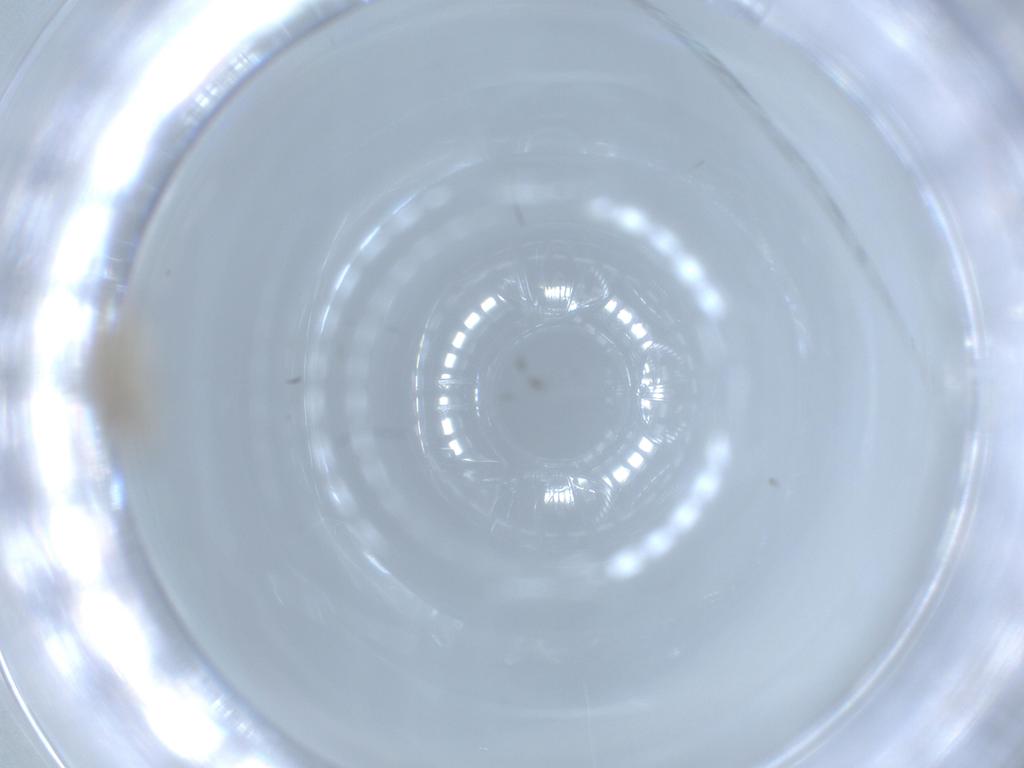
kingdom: Animalia
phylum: Arthropoda
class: Insecta
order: Diptera
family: Psychodidae
